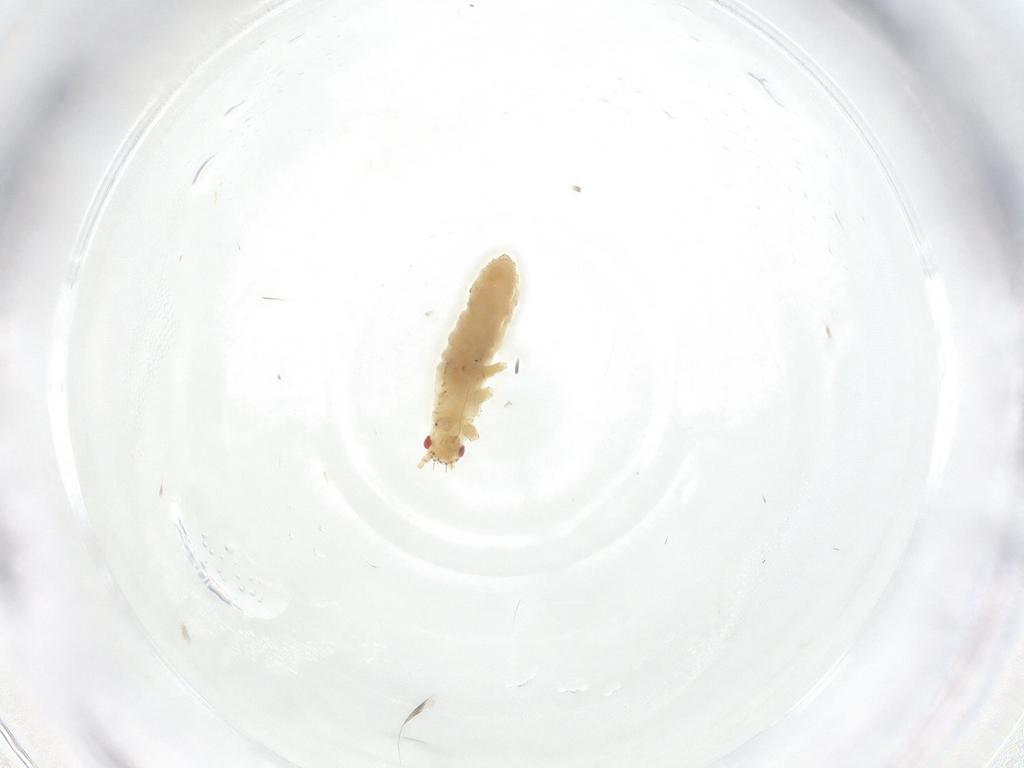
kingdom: Animalia
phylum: Arthropoda
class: Insecta
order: Hemiptera
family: Aphididae
